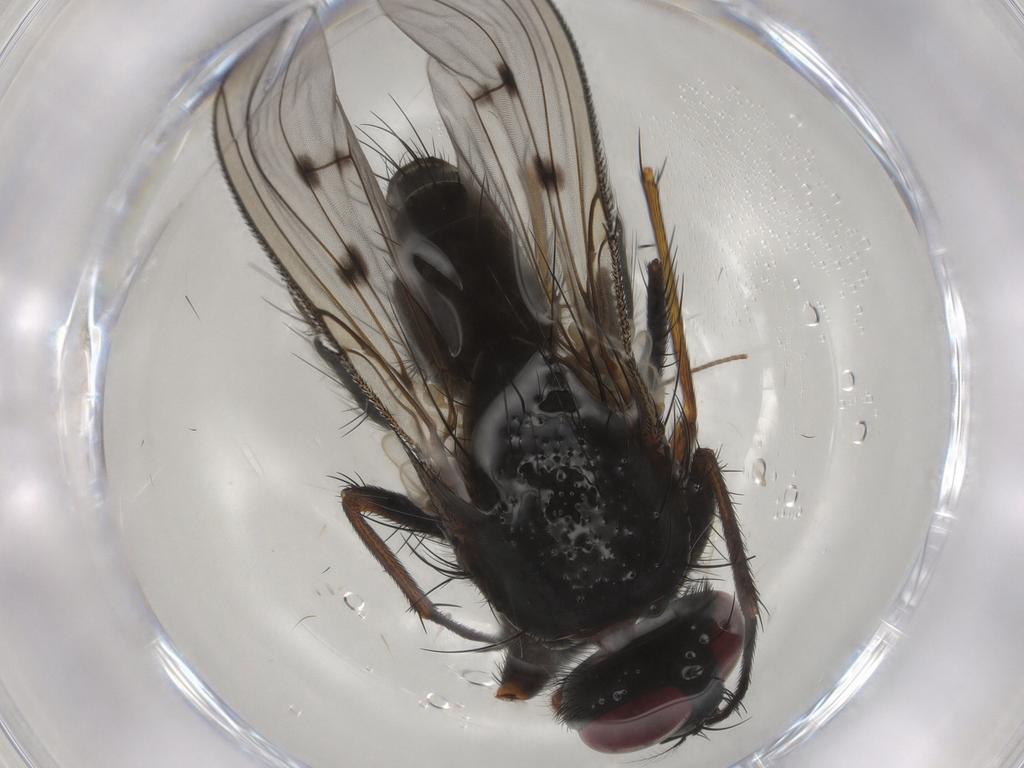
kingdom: Animalia
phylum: Arthropoda
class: Insecta
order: Diptera
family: Muscidae
